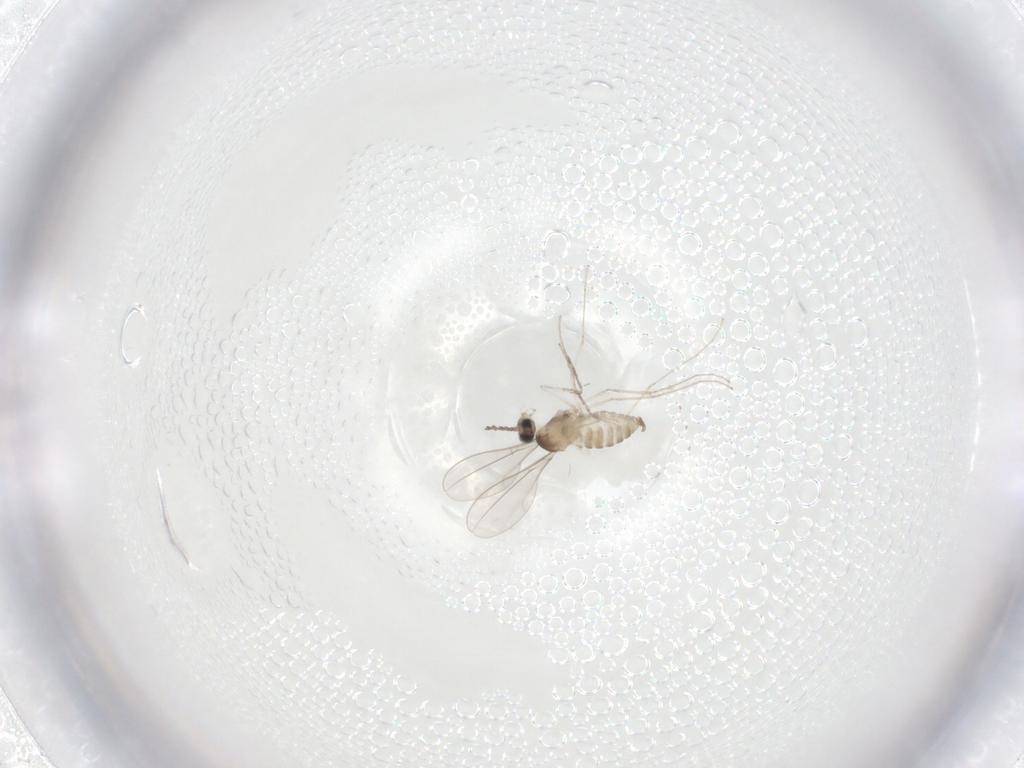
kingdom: Animalia
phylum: Arthropoda
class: Insecta
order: Diptera
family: Cecidomyiidae
